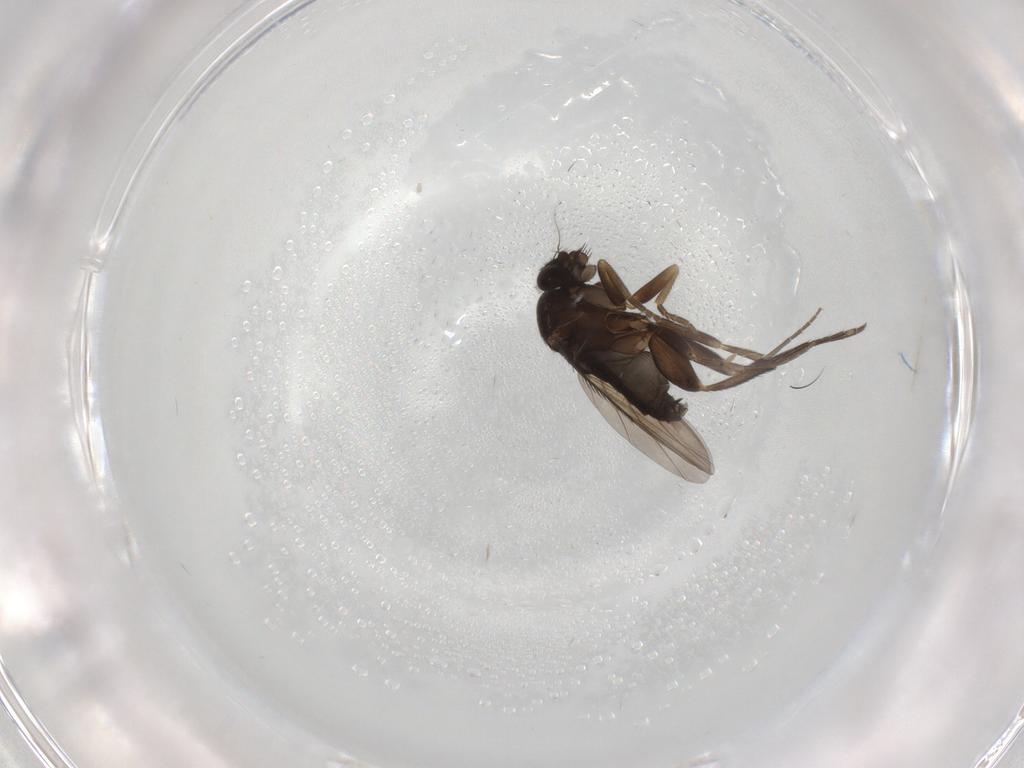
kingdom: Animalia
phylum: Arthropoda
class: Insecta
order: Diptera
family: Phoridae
